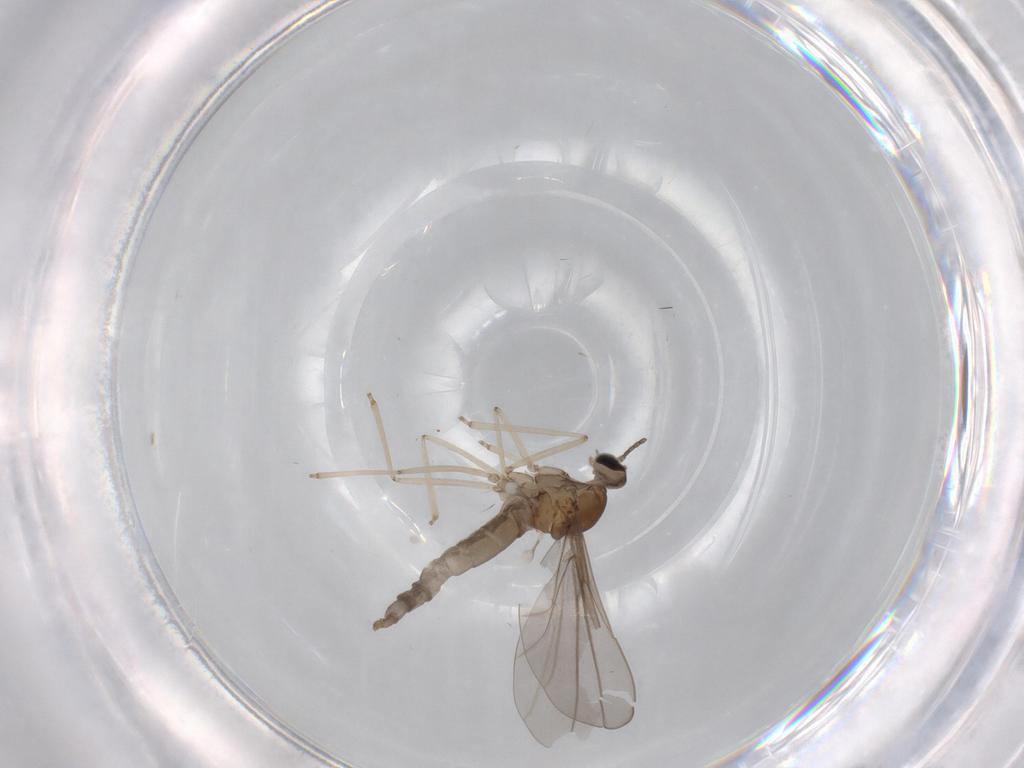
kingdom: Animalia
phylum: Arthropoda
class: Insecta
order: Diptera
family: Cecidomyiidae
